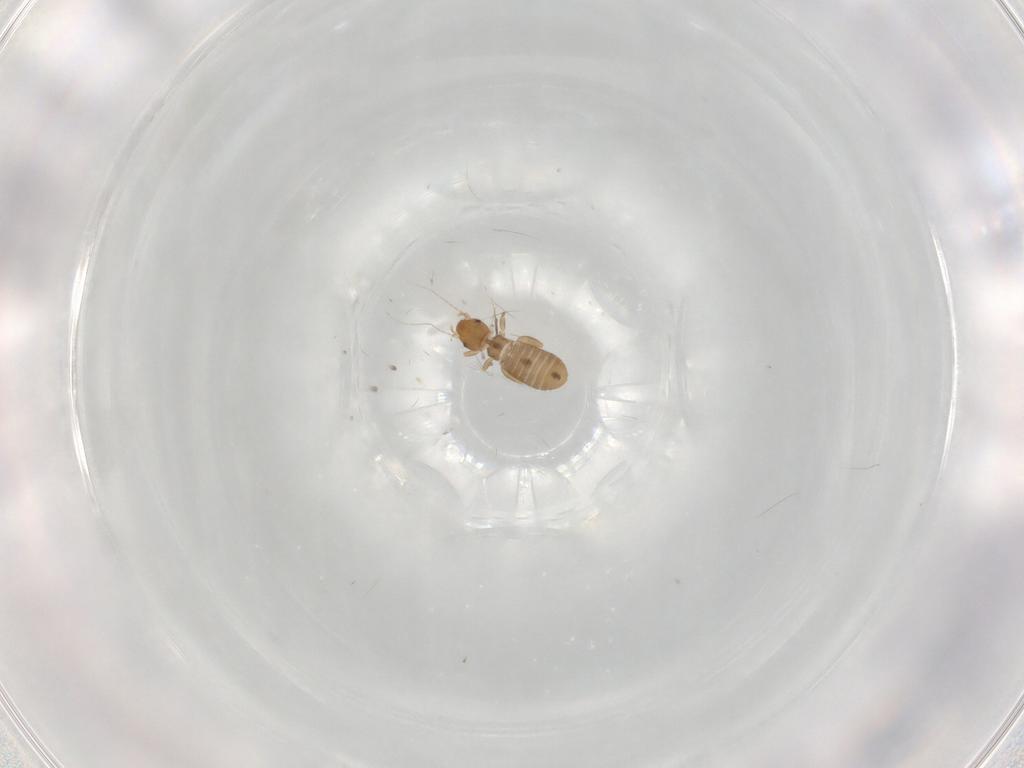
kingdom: Animalia
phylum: Arthropoda
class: Insecta
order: Psocodea
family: Liposcelididae
